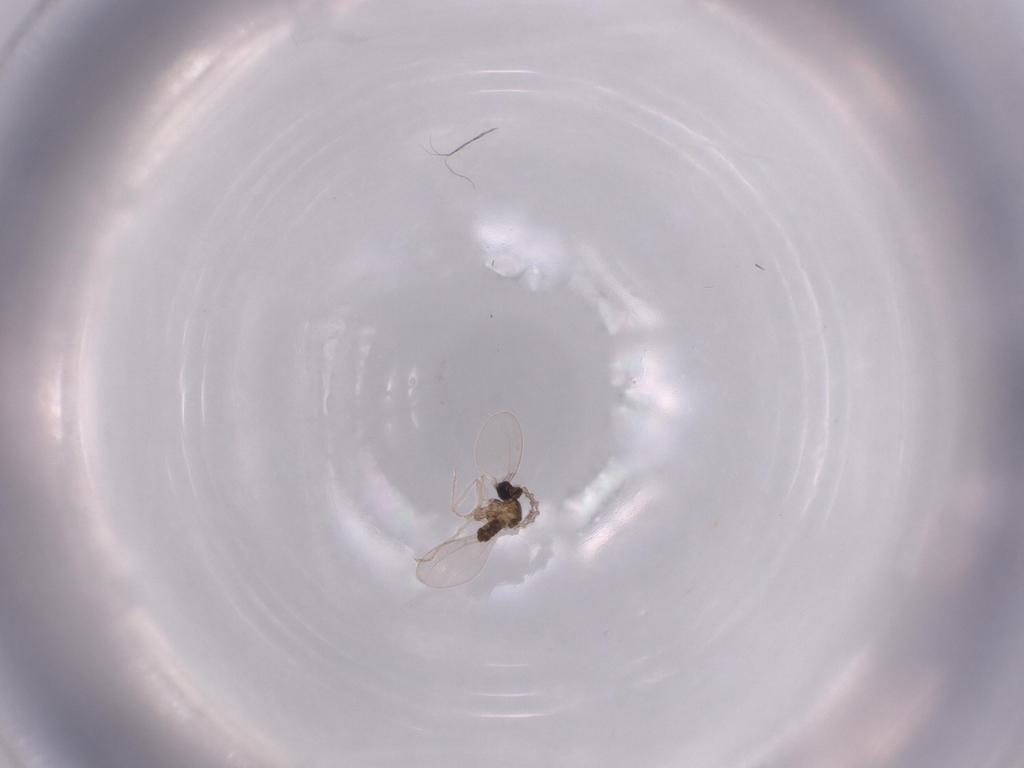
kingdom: Animalia
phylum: Arthropoda
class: Insecta
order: Diptera
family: Cecidomyiidae
